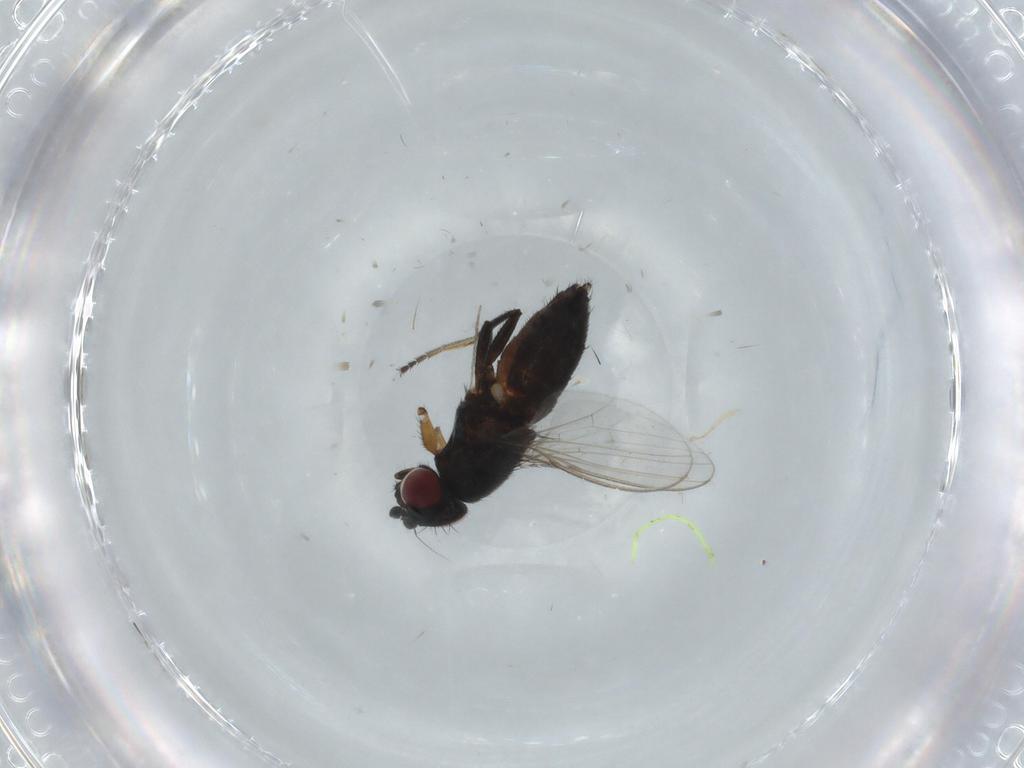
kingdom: Animalia
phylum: Arthropoda
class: Insecta
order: Diptera
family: Milichiidae
